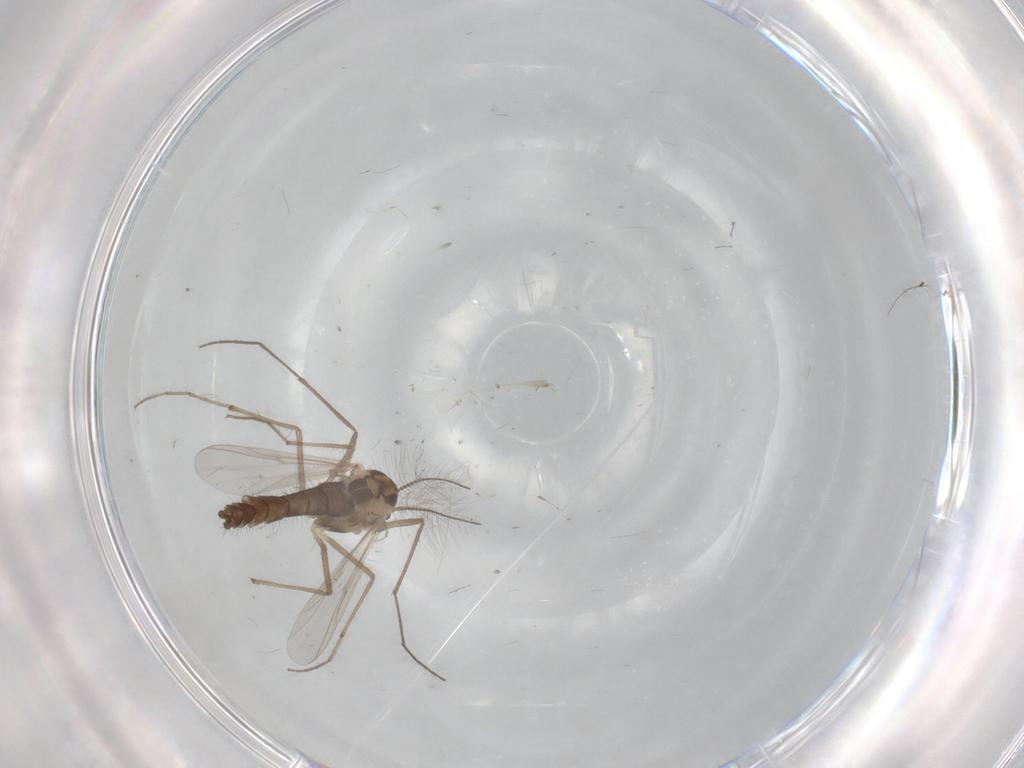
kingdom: Animalia
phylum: Arthropoda
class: Insecta
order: Diptera
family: Chironomidae
